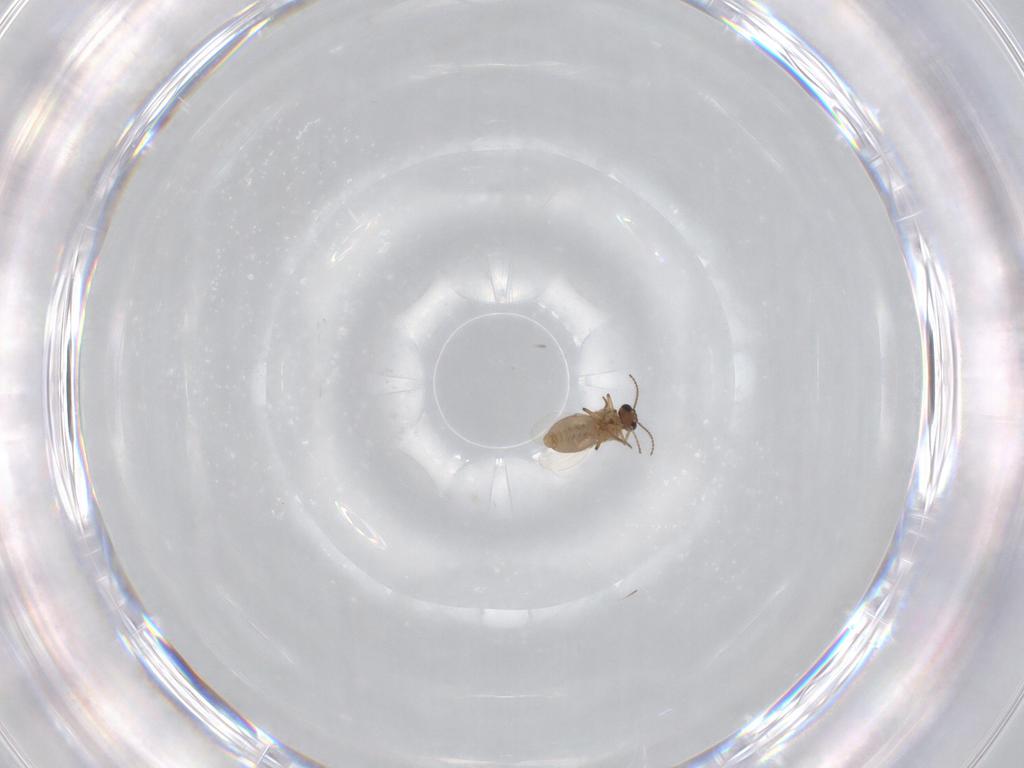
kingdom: Animalia
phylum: Arthropoda
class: Insecta
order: Diptera
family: Ceratopogonidae
